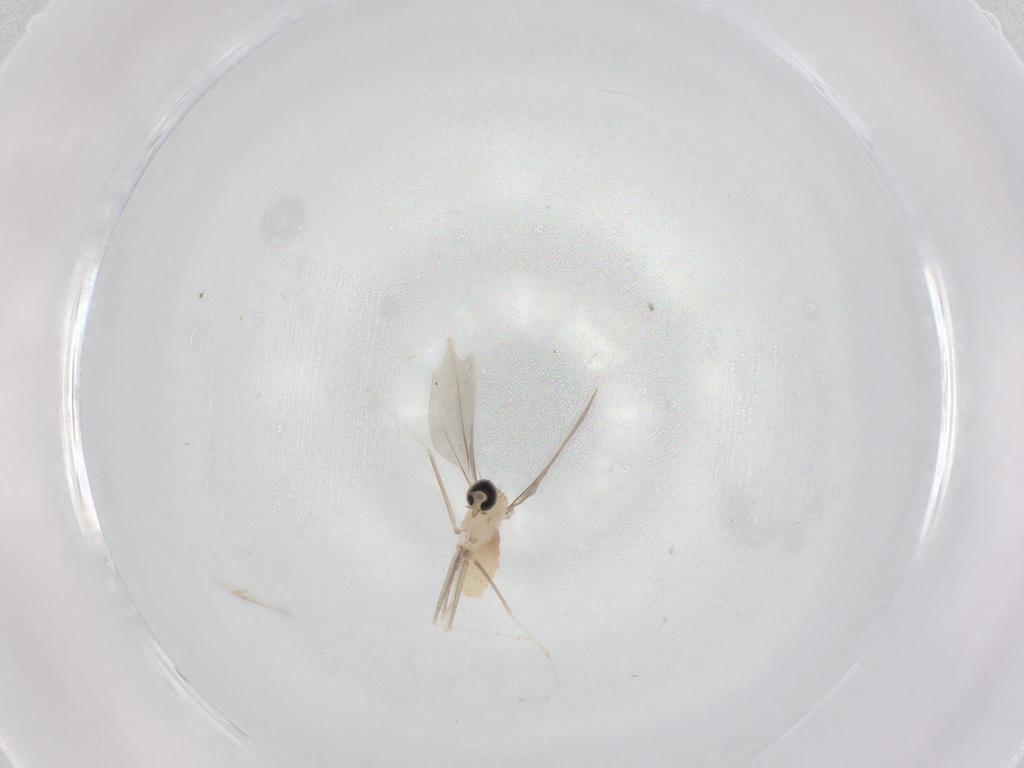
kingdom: Animalia
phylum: Arthropoda
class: Insecta
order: Diptera
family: Cecidomyiidae
